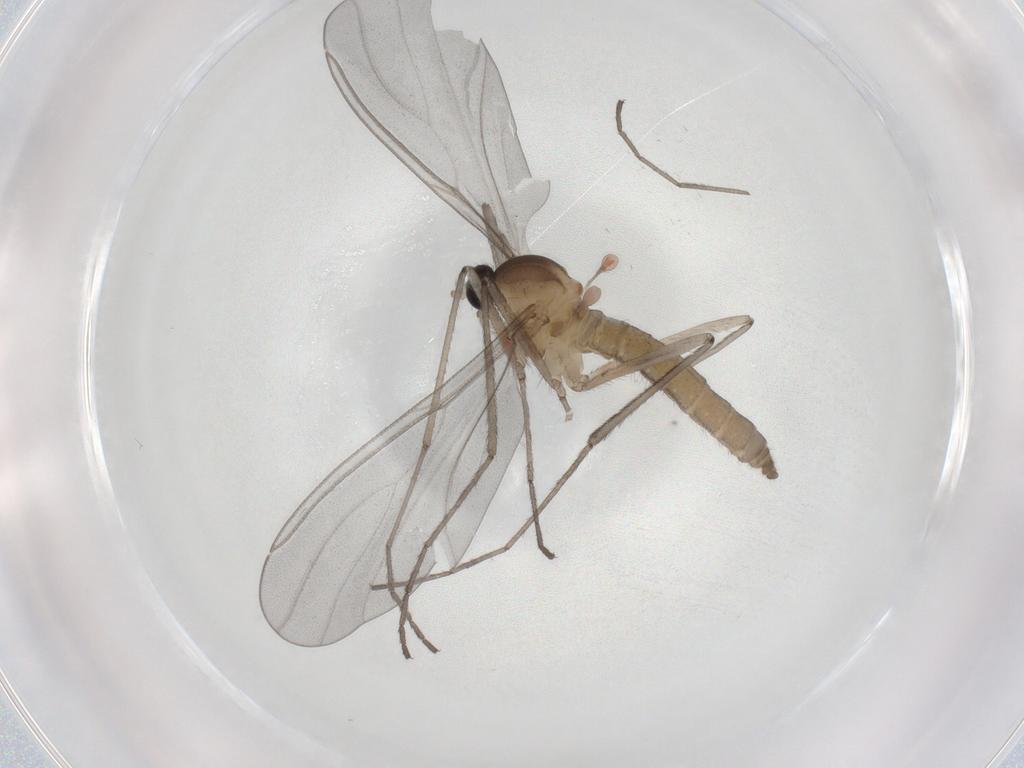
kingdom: Animalia
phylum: Arthropoda
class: Insecta
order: Diptera
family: Cecidomyiidae
